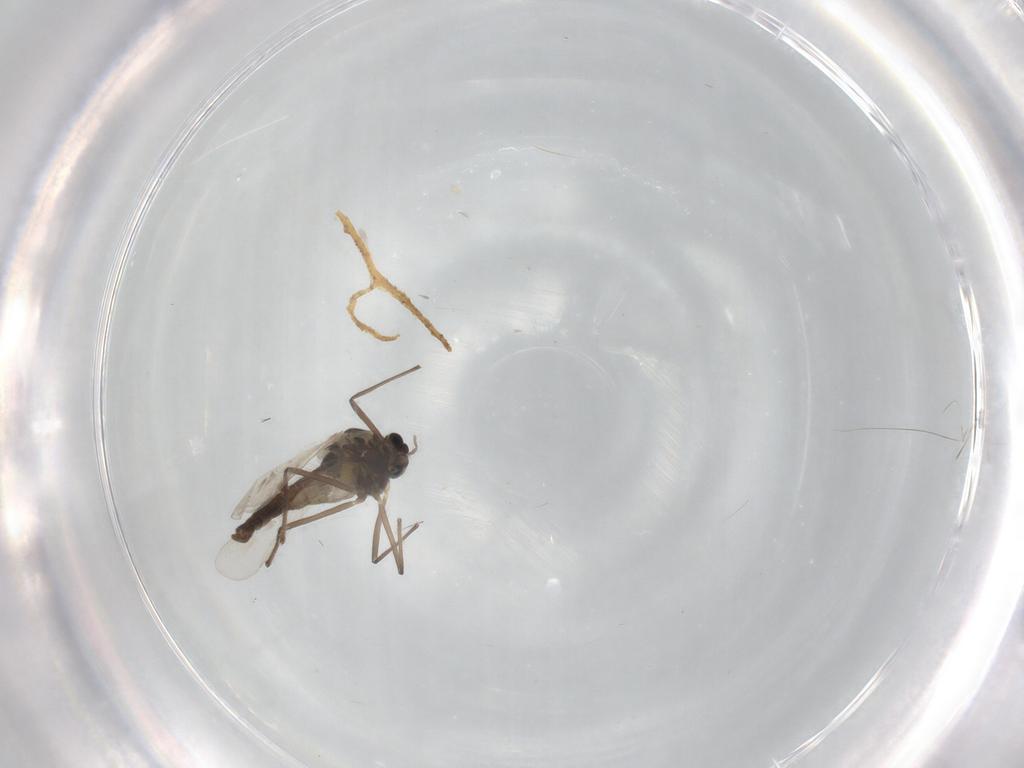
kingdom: Animalia
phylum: Arthropoda
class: Insecta
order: Diptera
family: Chironomidae
